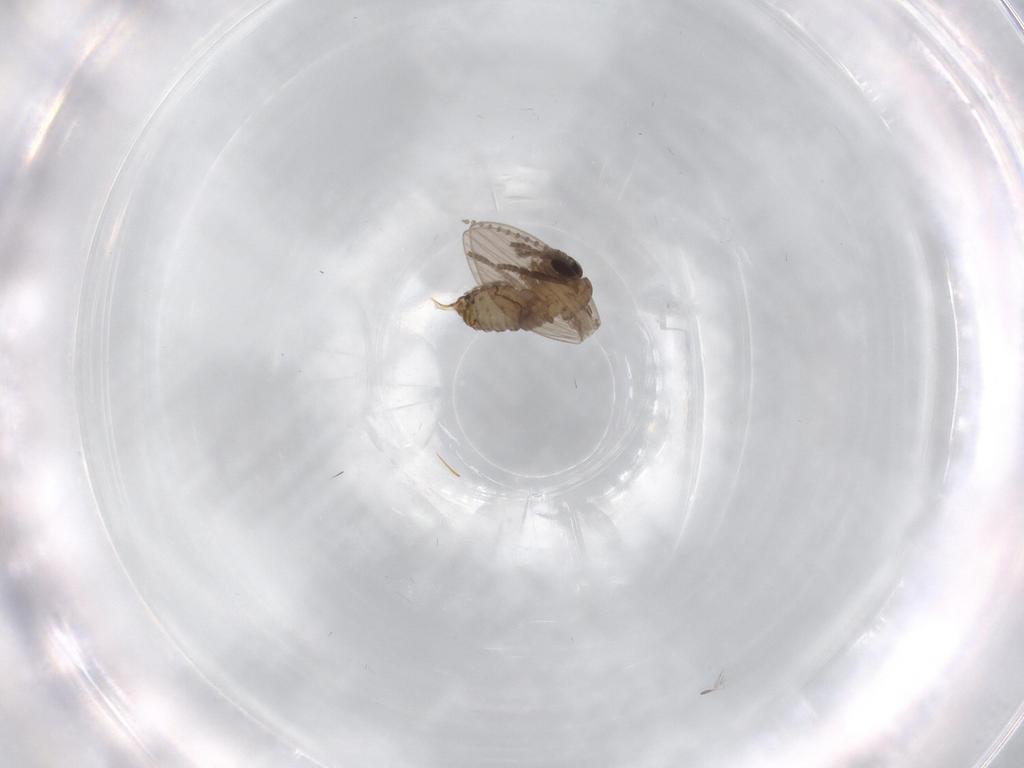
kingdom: Animalia
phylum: Arthropoda
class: Insecta
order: Diptera
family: Psychodidae
